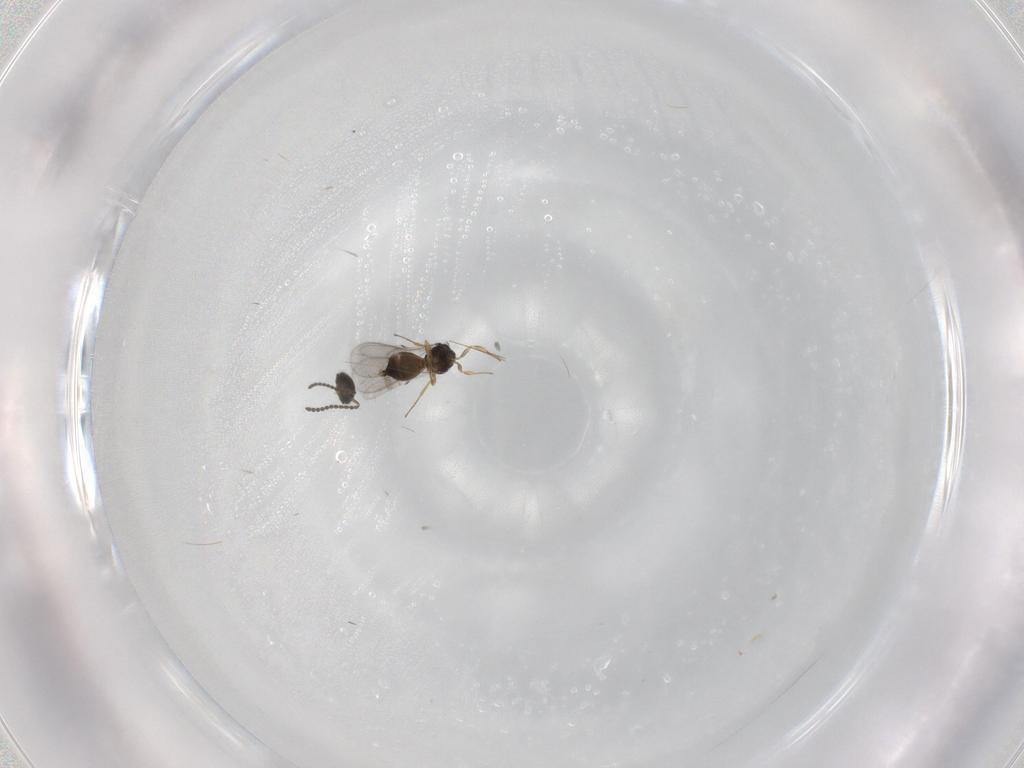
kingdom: Animalia
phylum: Arthropoda
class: Insecta
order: Hymenoptera
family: Scelionidae
